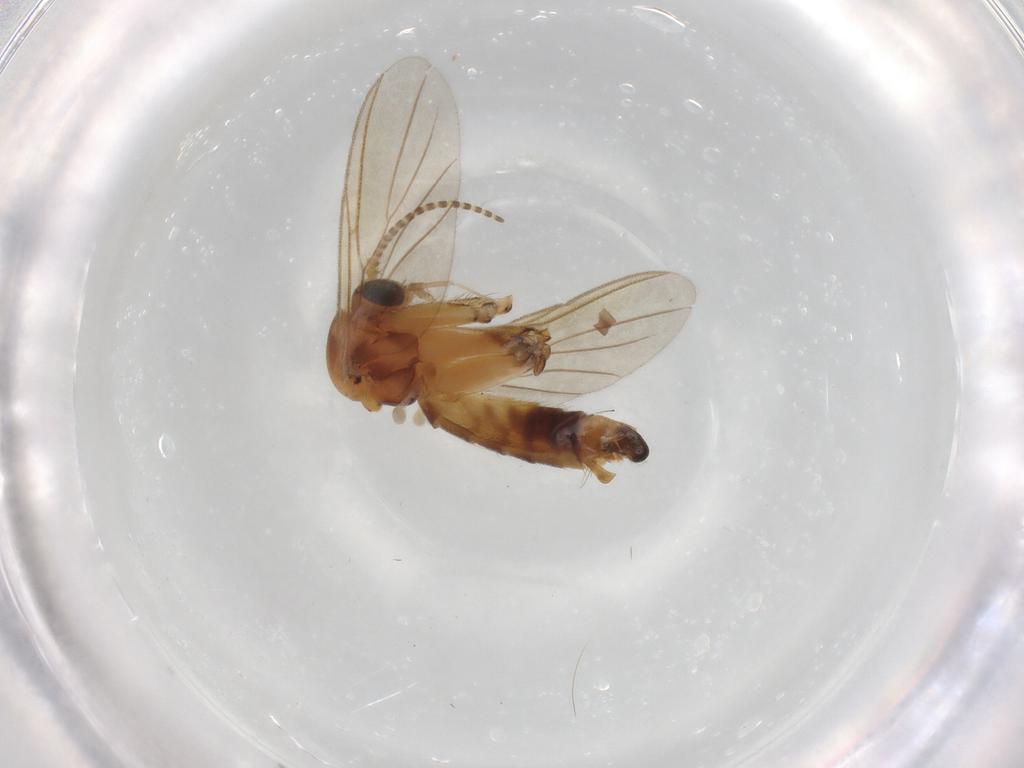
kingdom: Animalia
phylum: Arthropoda
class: Insecta
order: Diptera
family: Mycetophilidae
